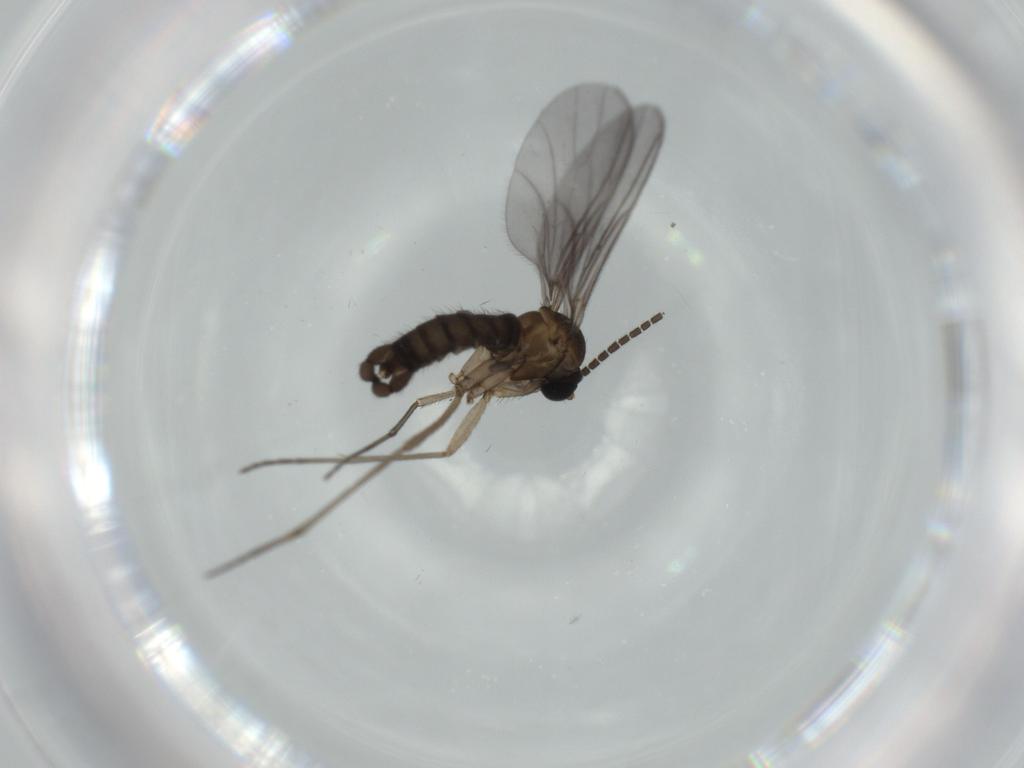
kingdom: Animalia
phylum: Arthropoda
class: Insecta
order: Diptera
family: Sciaridae
